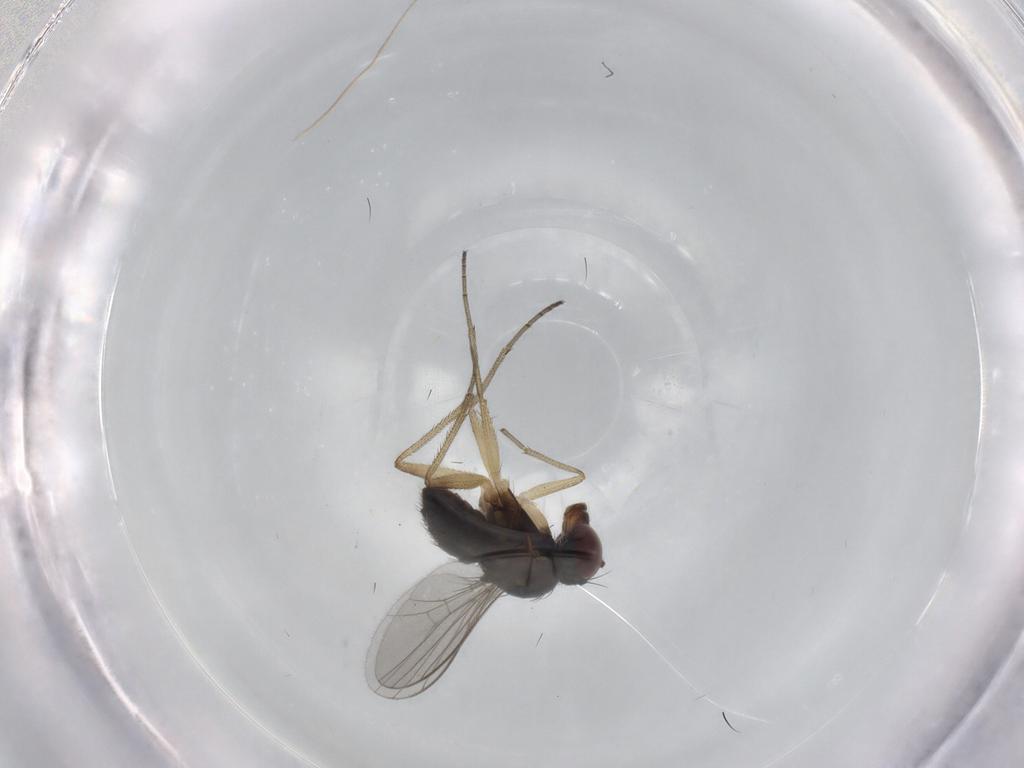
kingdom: Animalia
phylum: Arthropoda
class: Insecta
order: Diptera
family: Dolichopodidae
